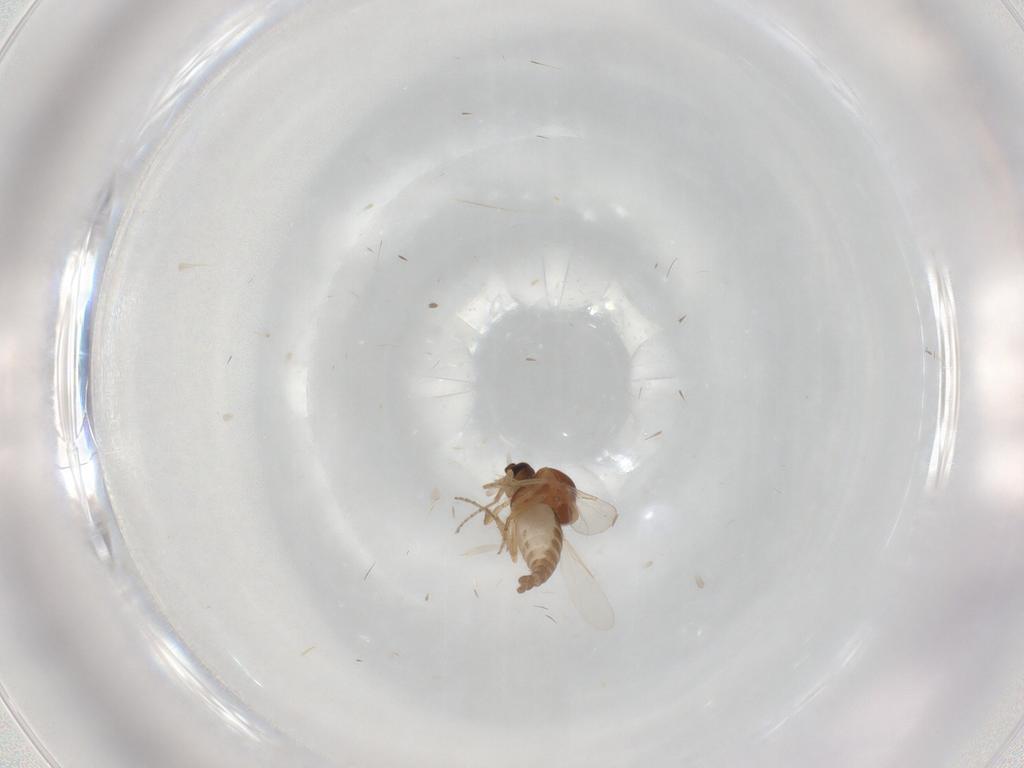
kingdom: Animalia
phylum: Arthropoda
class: Insecta
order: Diptera
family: Ceratopogonidae
